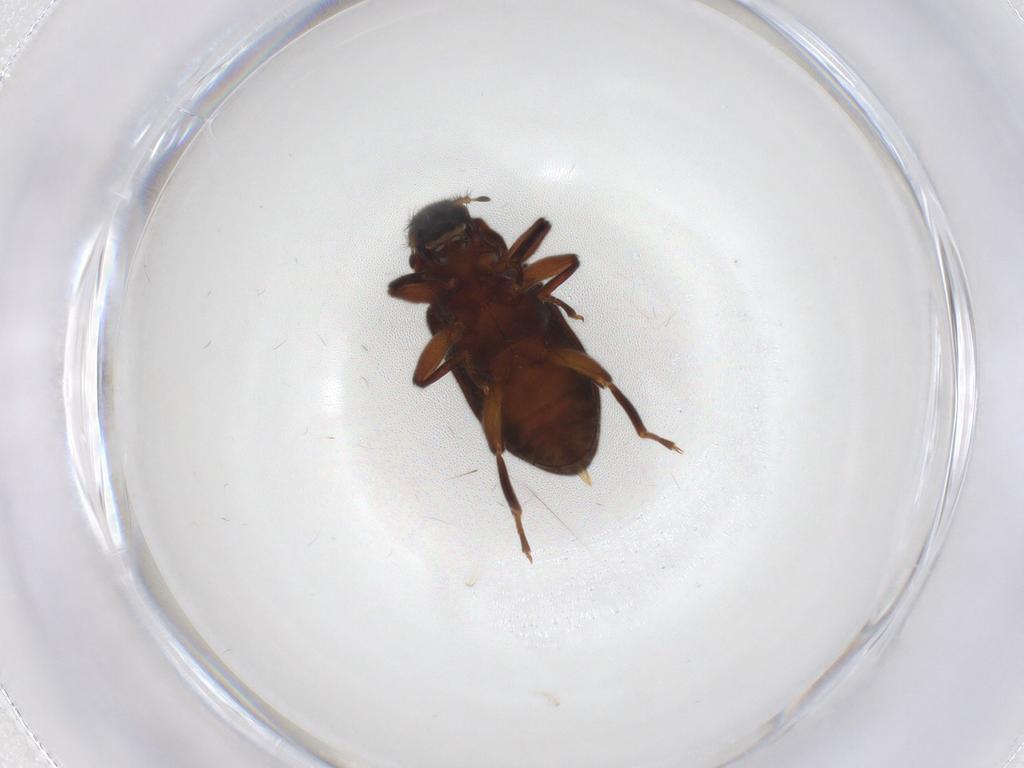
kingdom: Animalia
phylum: Arthropoda
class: Insecta
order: Coleoptera
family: Elmidae
